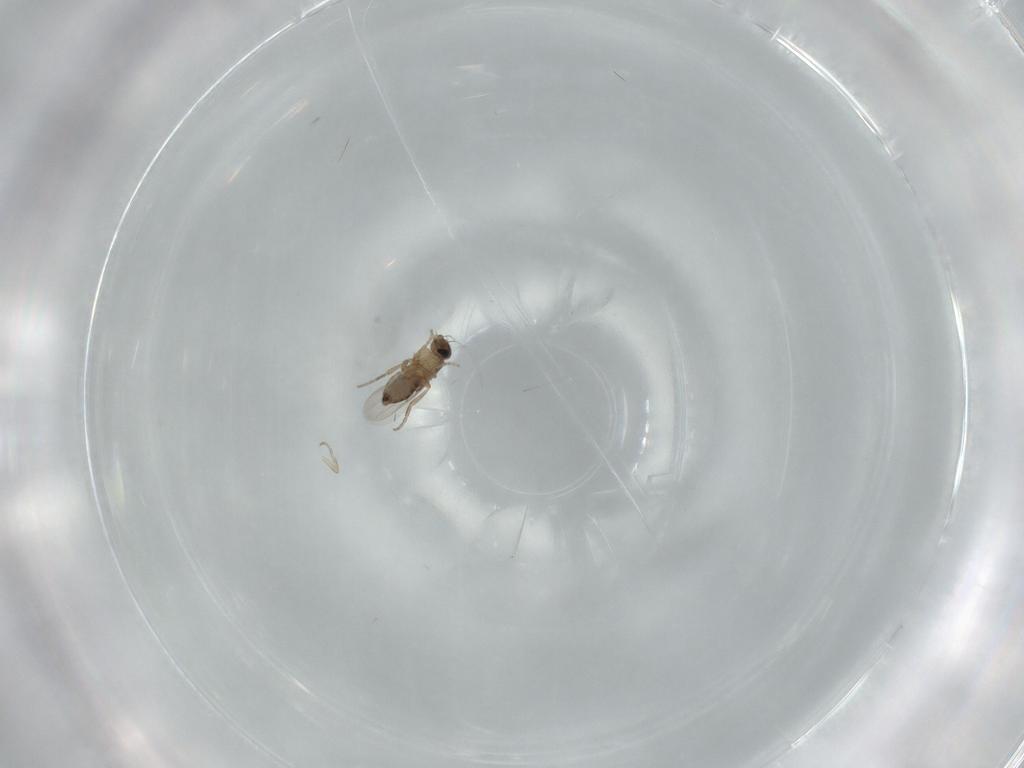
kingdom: Animalia
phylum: Arthropoda
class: Insecta
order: Diptera
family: Phoridae
